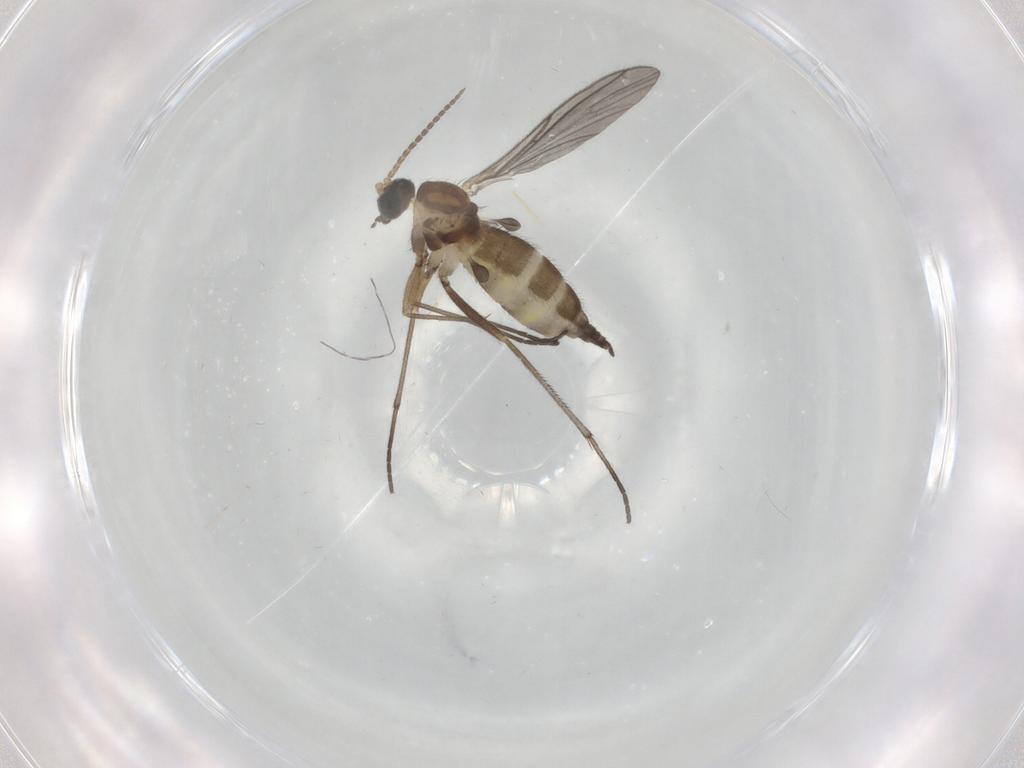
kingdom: Animalia
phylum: Arthropoda
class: Insecta
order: Diptera
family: Sciaridae
